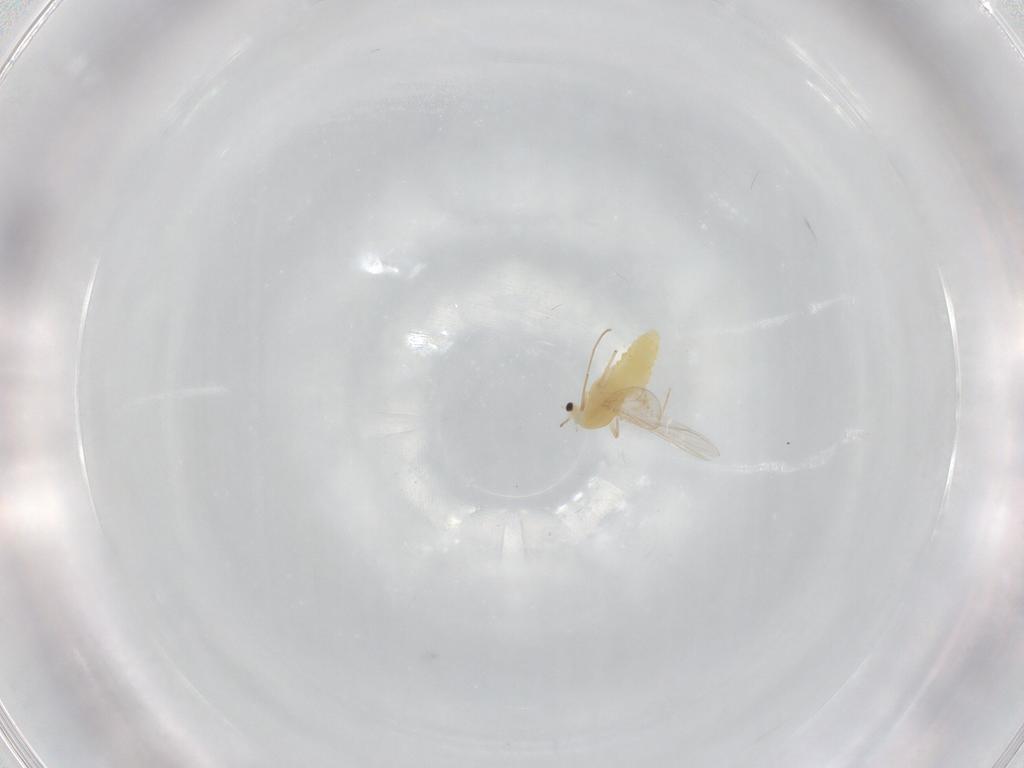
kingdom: Animalia
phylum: Arthropoda
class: Insecta
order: Diptera
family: Chironomidae
